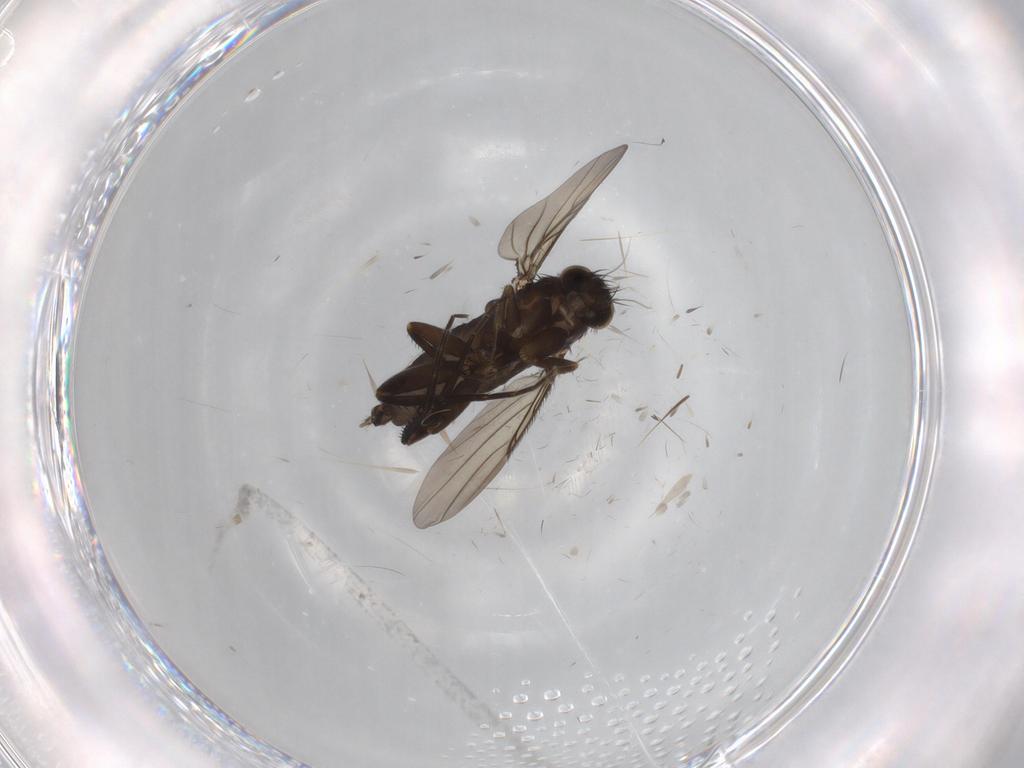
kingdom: Animalia
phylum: Arthropoda
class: Insecta
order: Diptera
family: Phoridae
